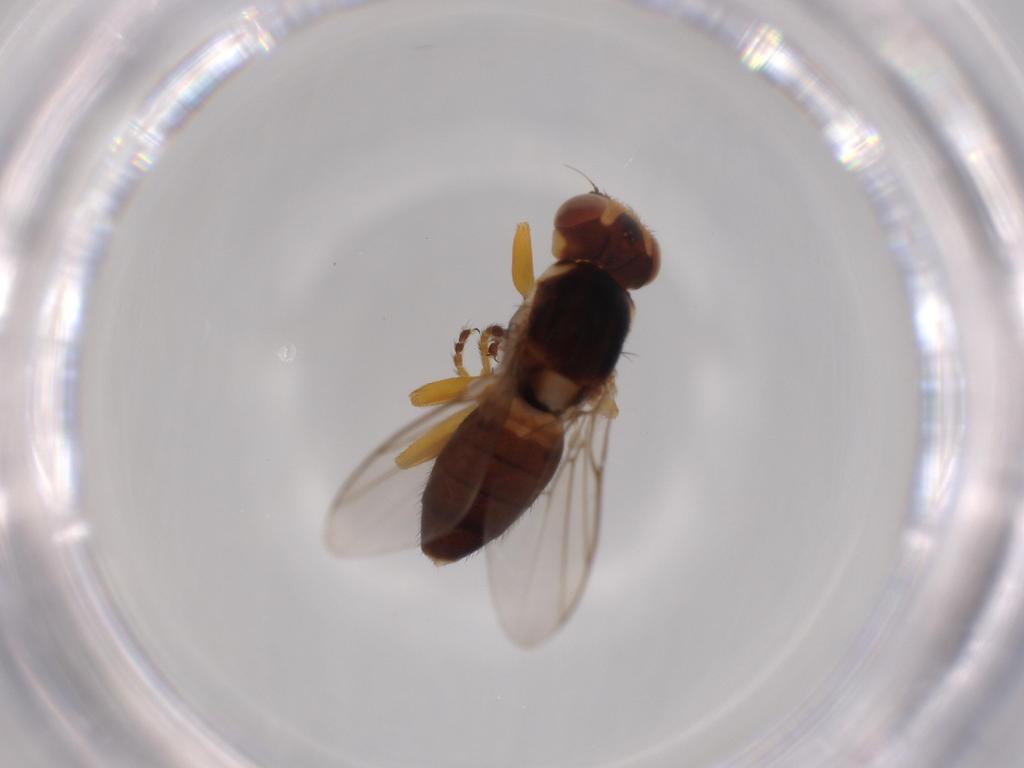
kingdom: Animalia
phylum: Arthropoda
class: Insecta
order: Diptera
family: Chloropidae
